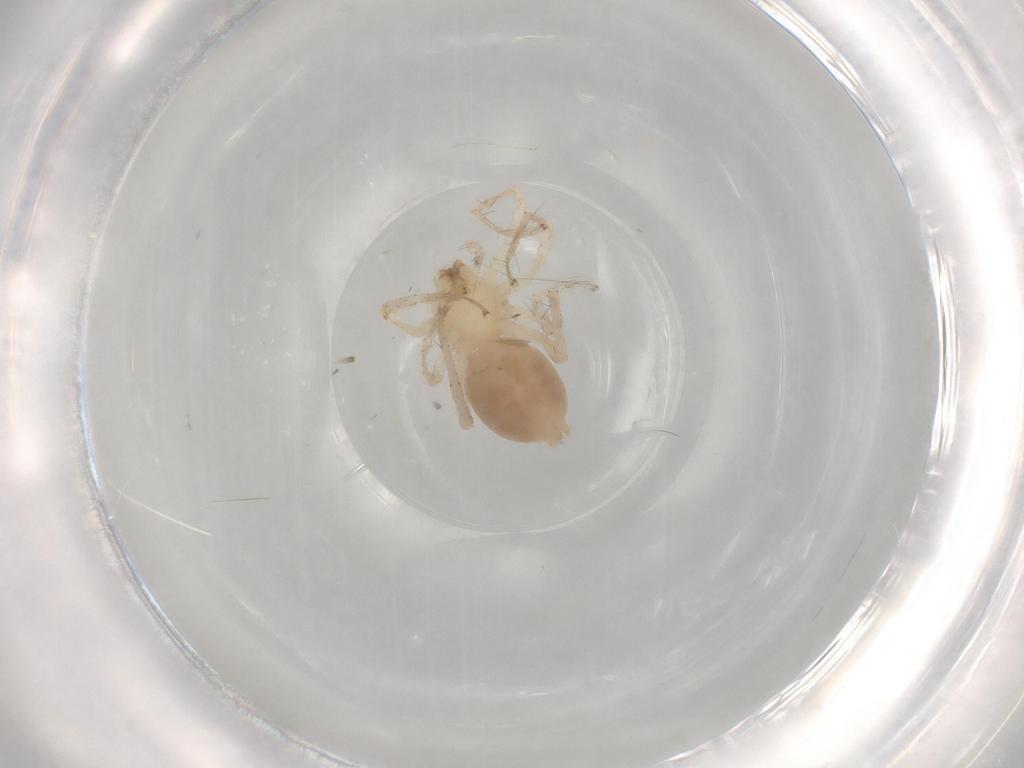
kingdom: Animalia
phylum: Arthropoda
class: Arachnida
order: Araneae
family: Anyphaenidae
